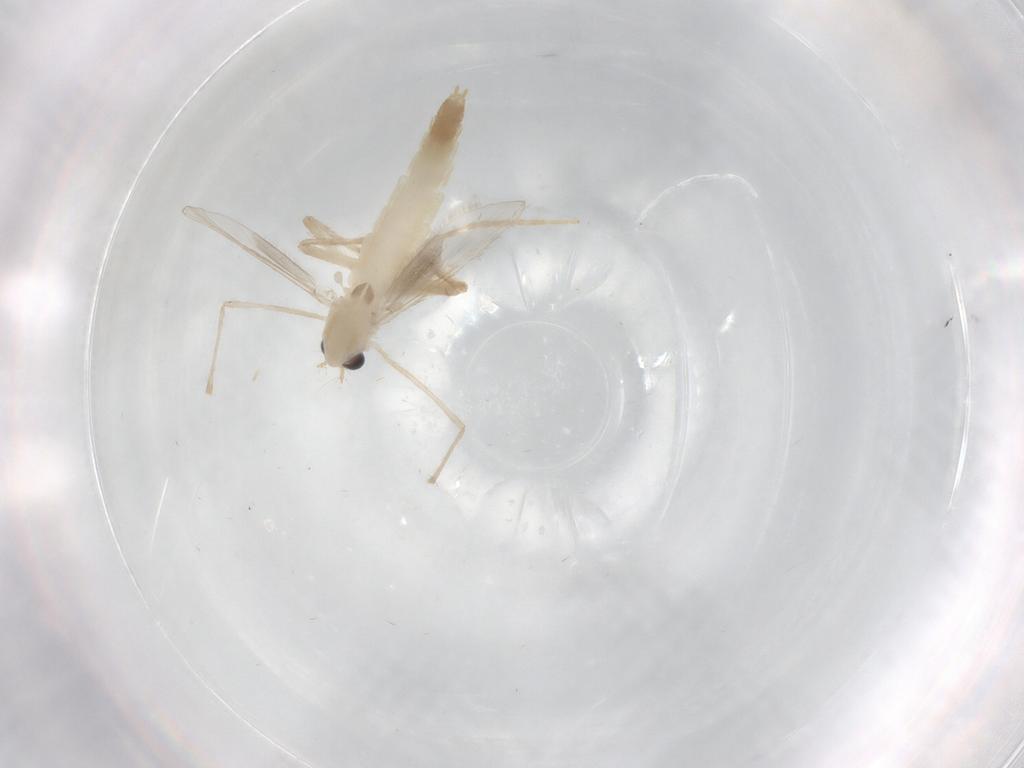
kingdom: Animalia
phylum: Arthropoda
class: Insecta
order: Diptera
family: Chironomidae
